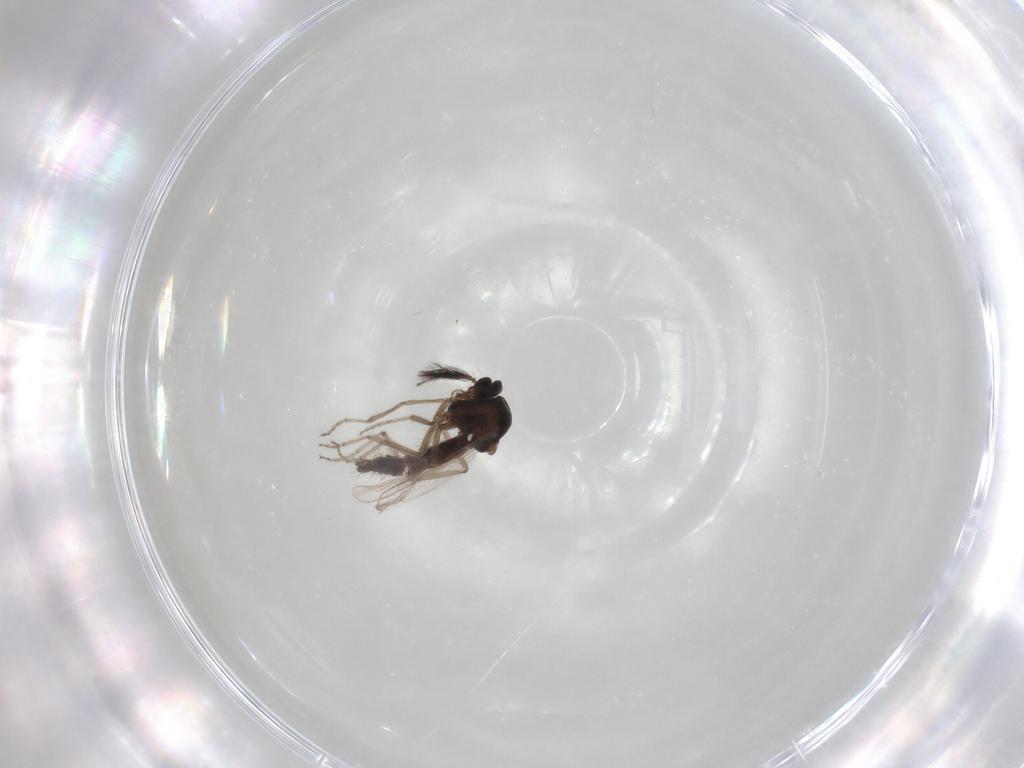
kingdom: Animalia
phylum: Arthropoda
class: Insecta
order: Diptera
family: Ceratopogonidae
